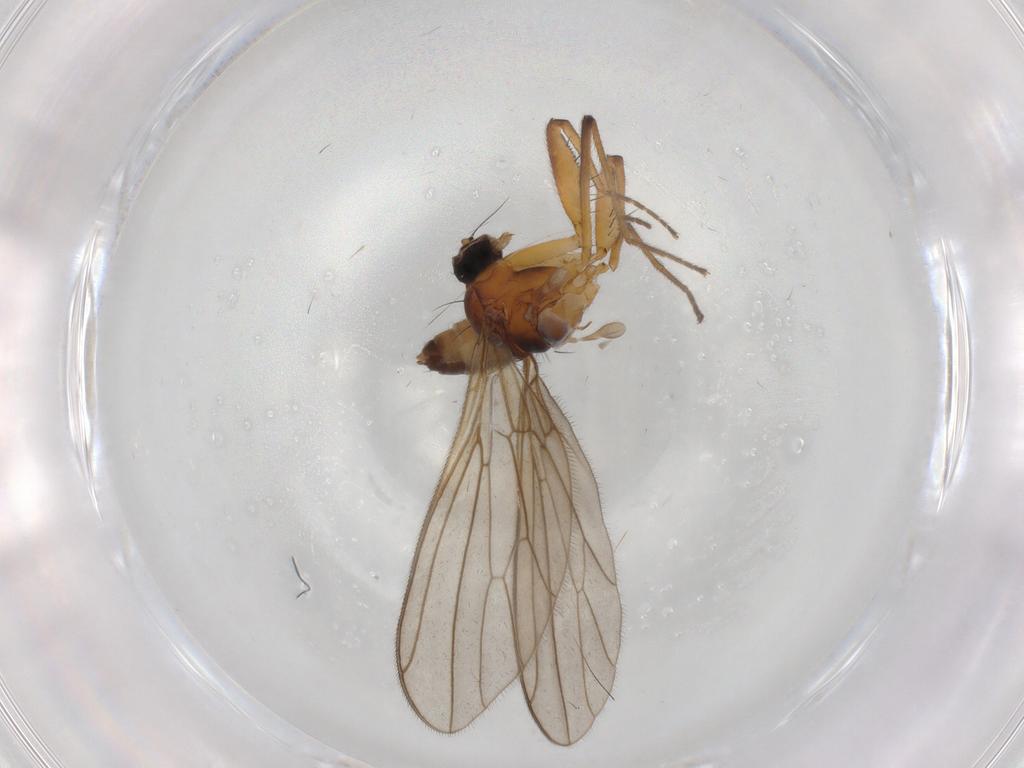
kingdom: Animalia
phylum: Arthropoda
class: Insecta
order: Diptera
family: Empididae
